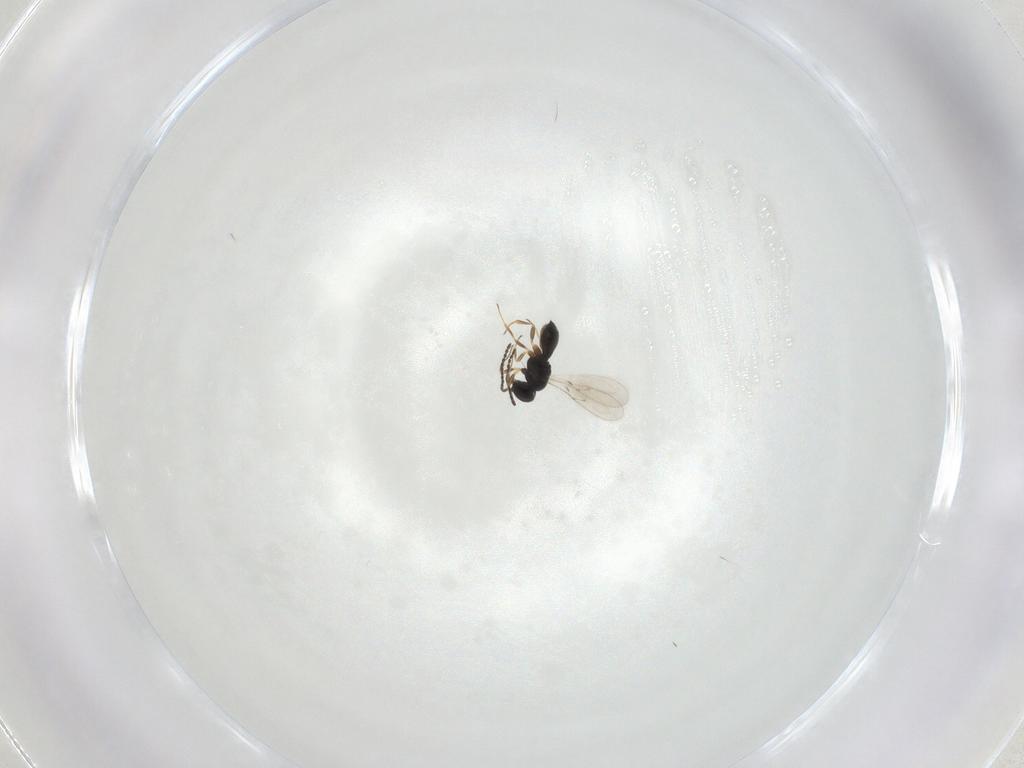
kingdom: Animalia
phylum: Arthropoda
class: Insecta
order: Hymenoptera
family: Scelionidae
